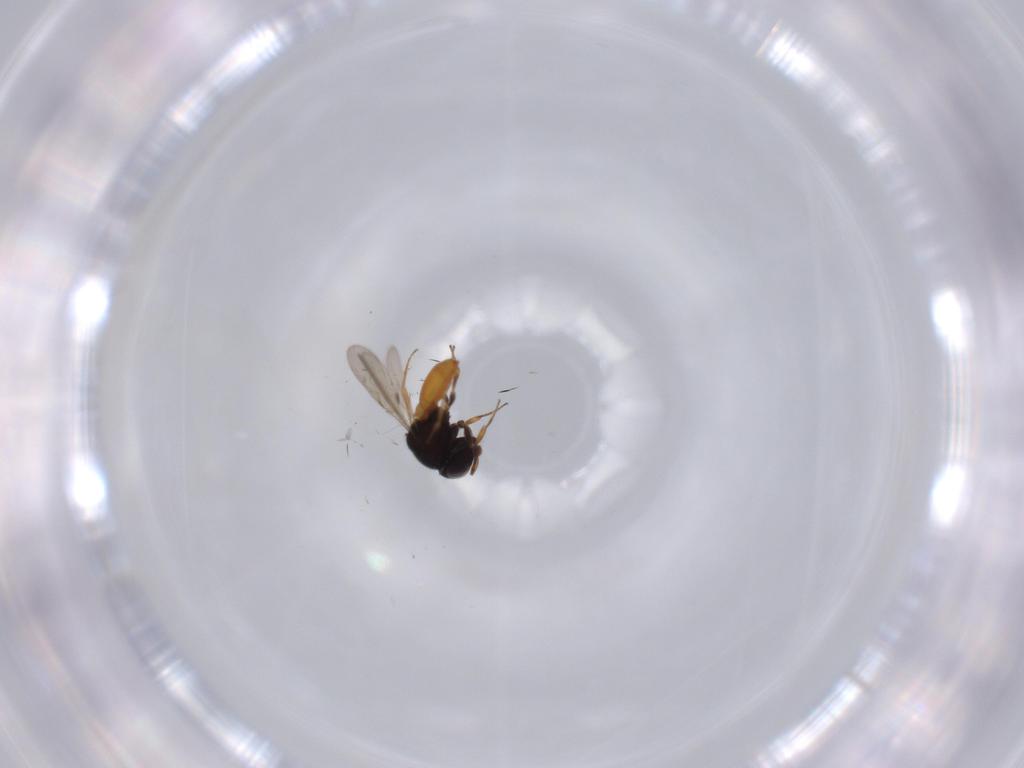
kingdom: Animalia
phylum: Arthropoda
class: Insecta
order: Hymenoptera
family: Scelionidae
